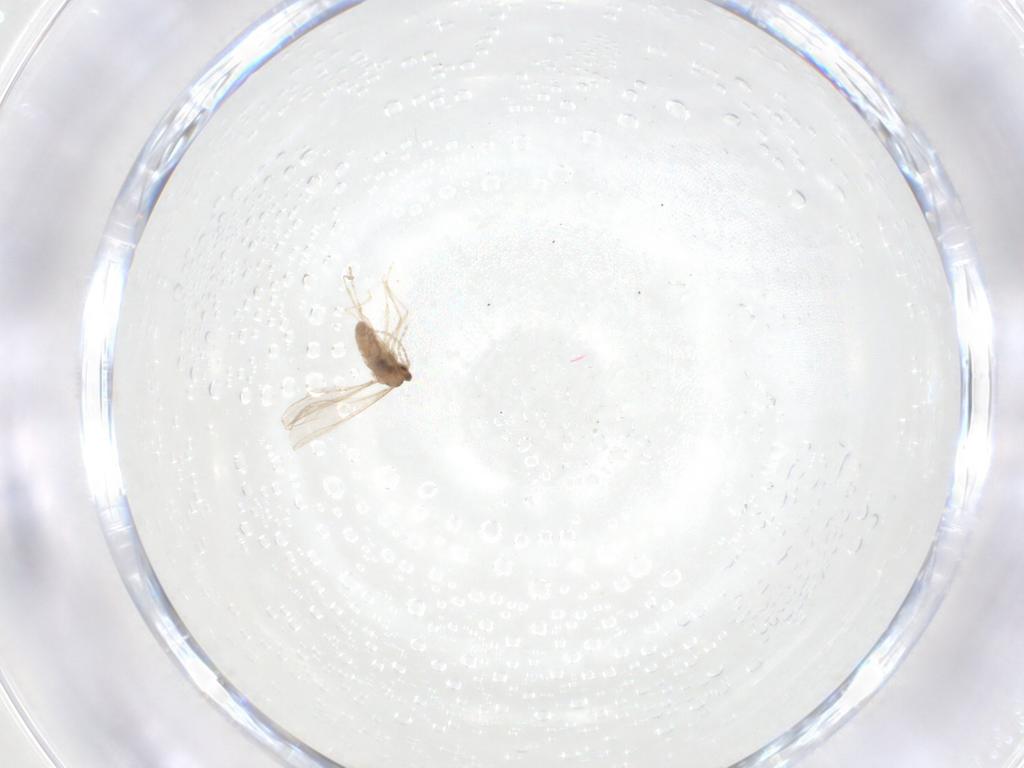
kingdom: Animalia
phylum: Arthropoda
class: Insecta
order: Diptera
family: Cecidomyiidae
